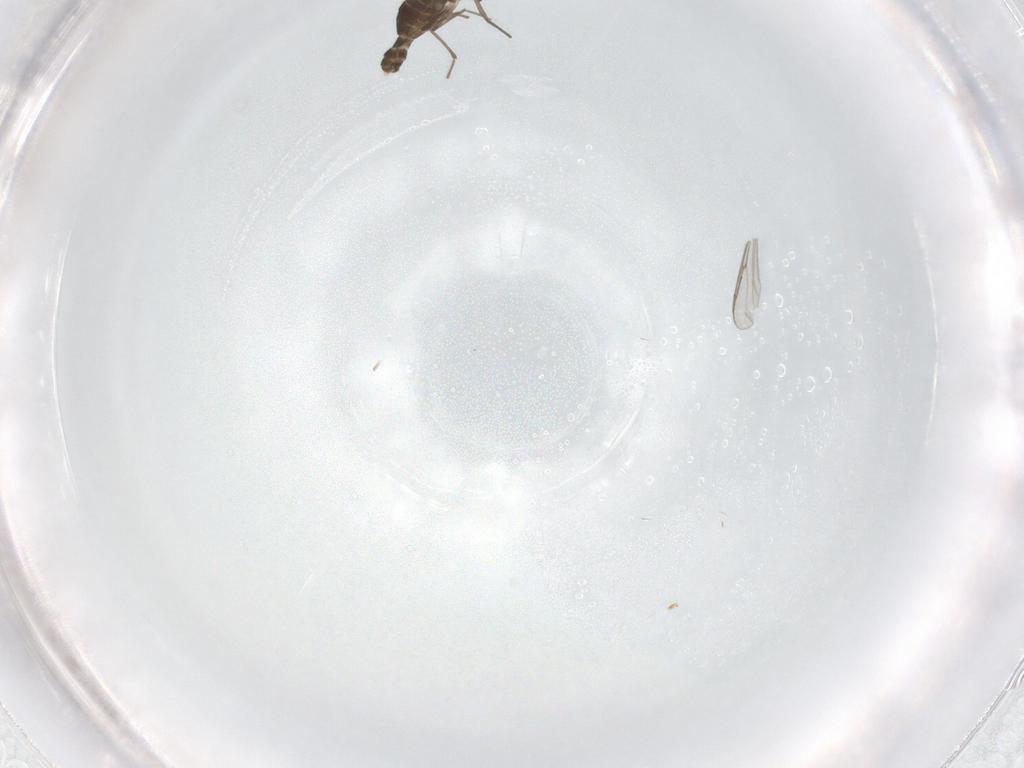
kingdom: Animalia
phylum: Arthropoda
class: Insecta
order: Diptera
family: Chironomidae
